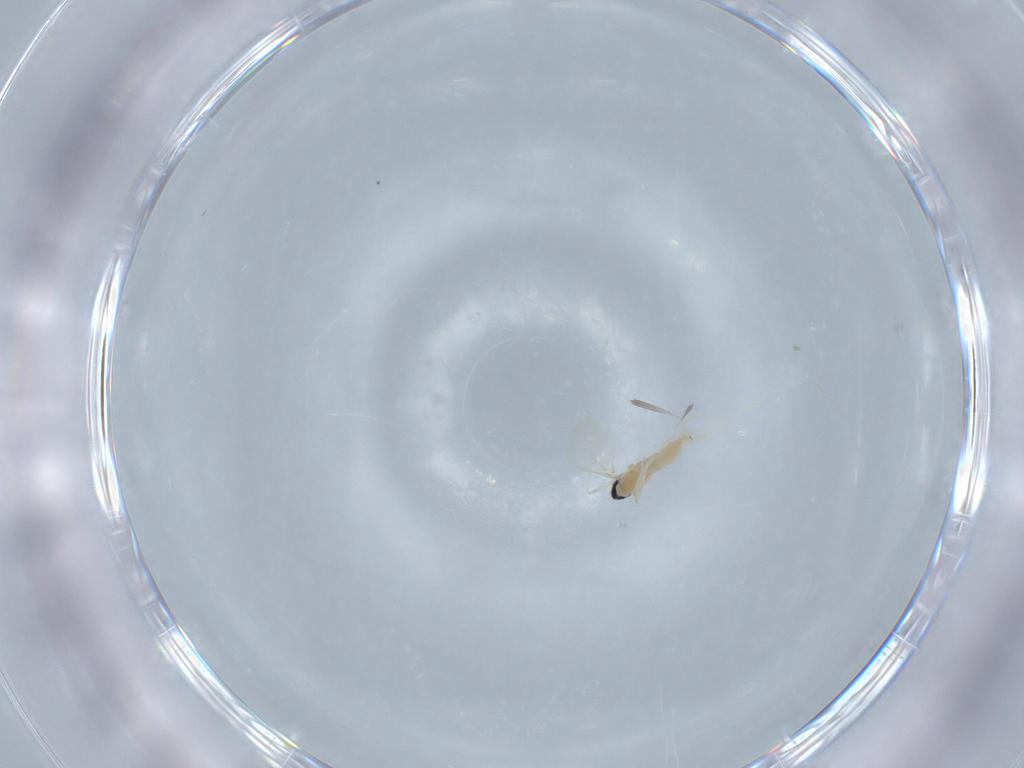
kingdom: Animalia
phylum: Arthropoda
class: Insecta
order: Diptera
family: Cecidomyiidae
